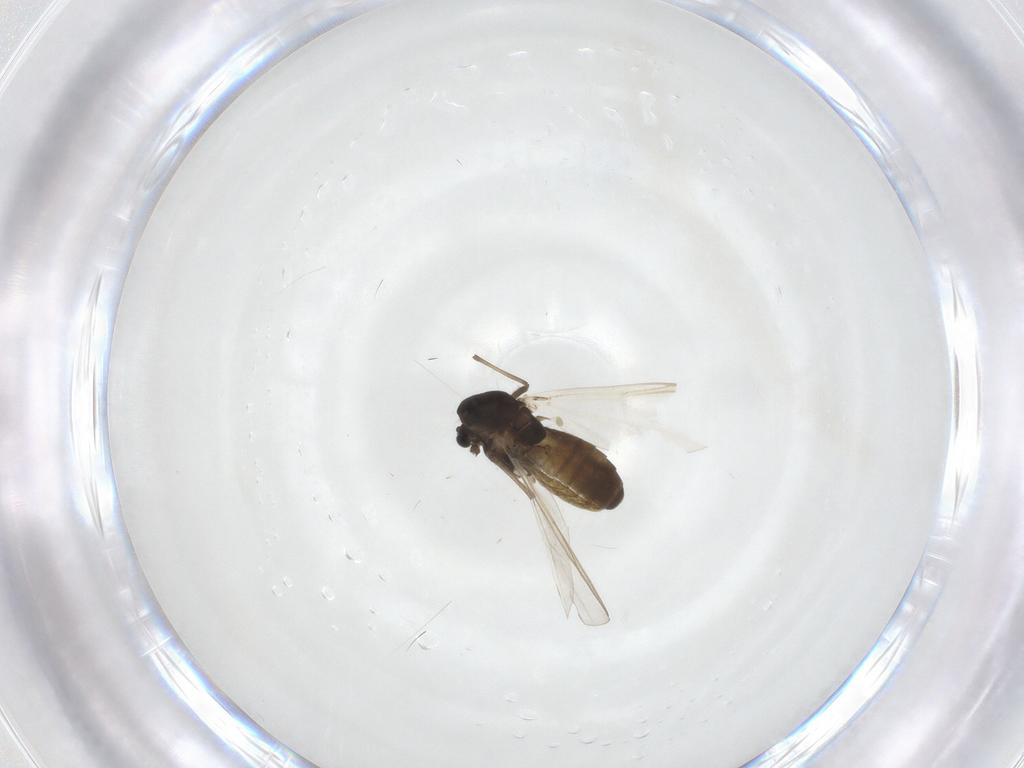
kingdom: Animalia
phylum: Arthropoda
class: Insecta
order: Diptera
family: Chironomidae
